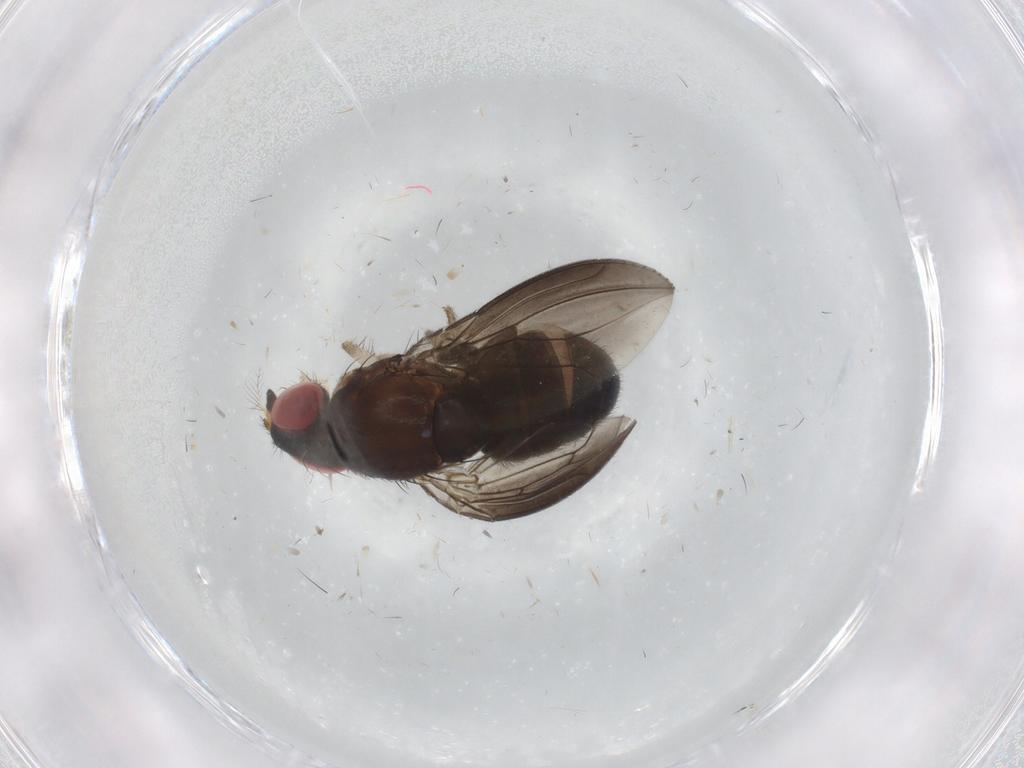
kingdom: Animalia
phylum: Arthropoda
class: Insecta
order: Diptera
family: Drosophilidae
